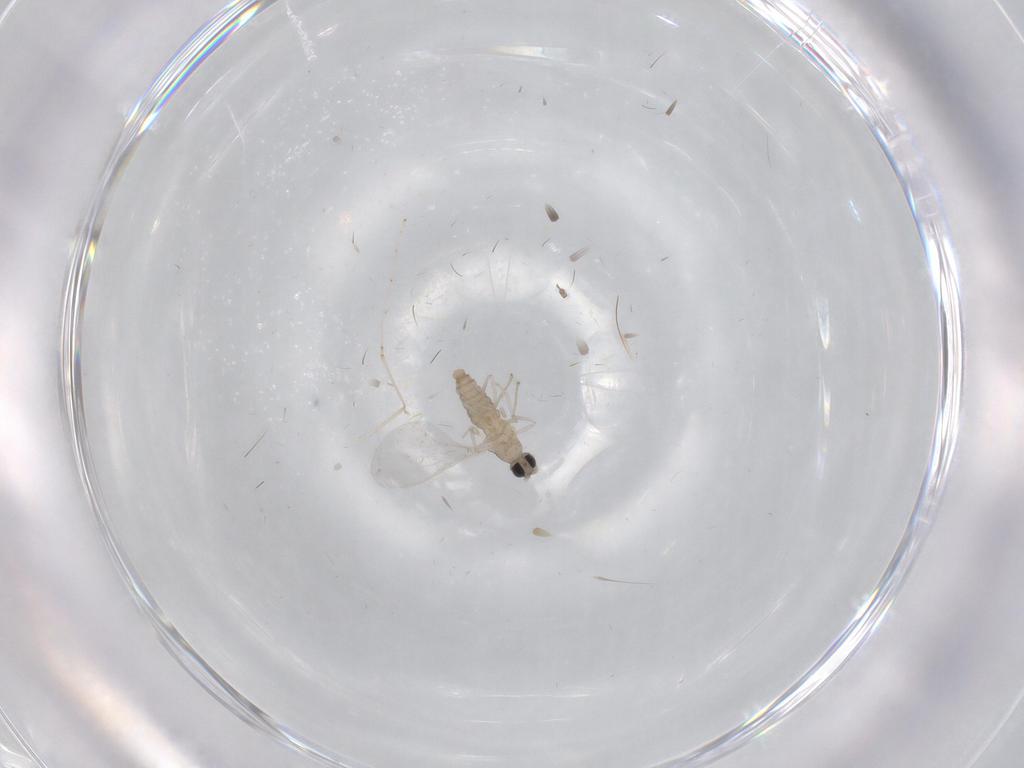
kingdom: Animalia
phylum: Arthropoda
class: Insecta
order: Diptera
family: Cecidomyiidae
